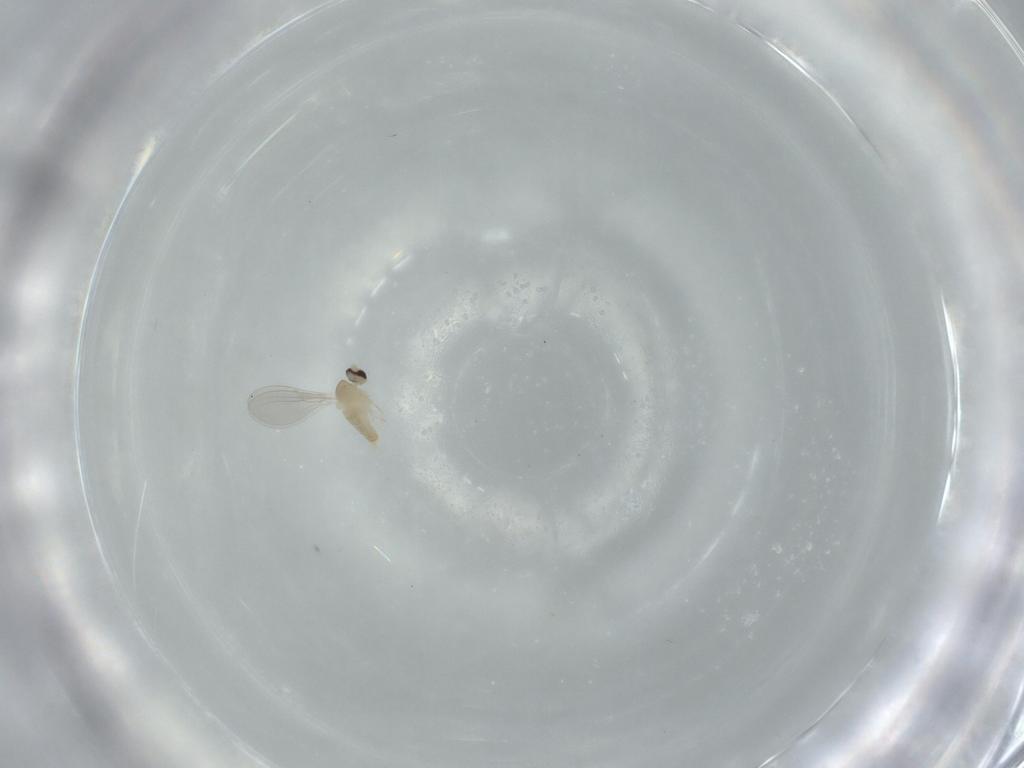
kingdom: Animalia
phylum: Arthropoda
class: Insecta
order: Diptera
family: Cecidomyiidae
